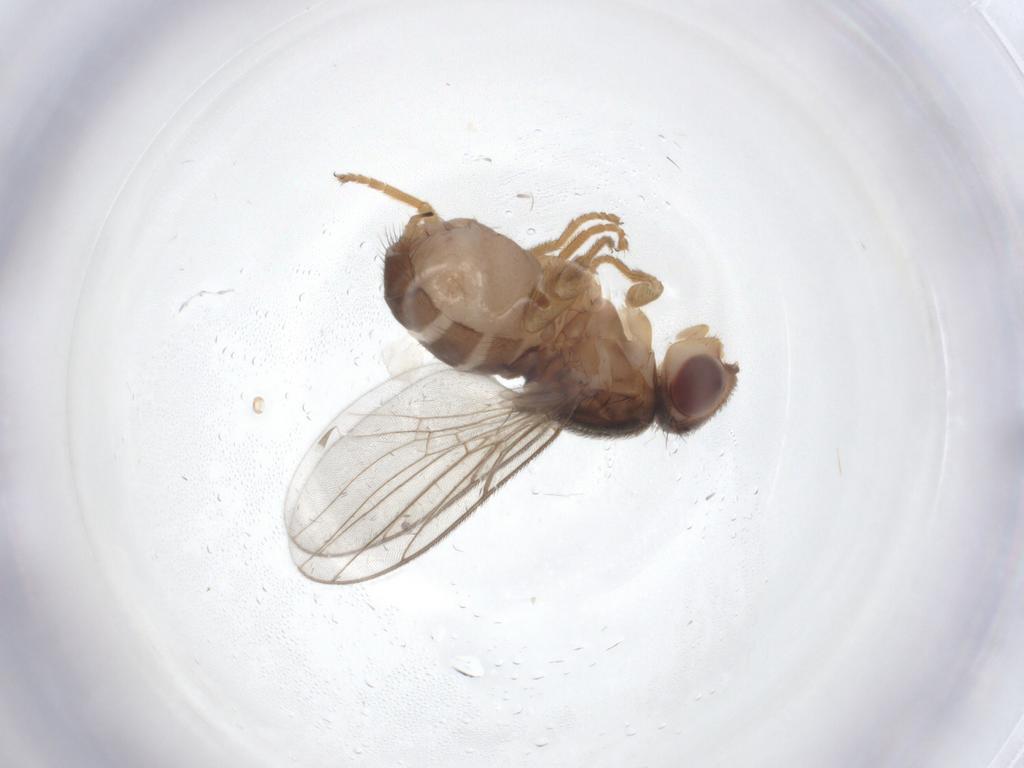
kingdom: Animalia
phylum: Arthropoda
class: Insecta
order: Diptera
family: Chloropidae
